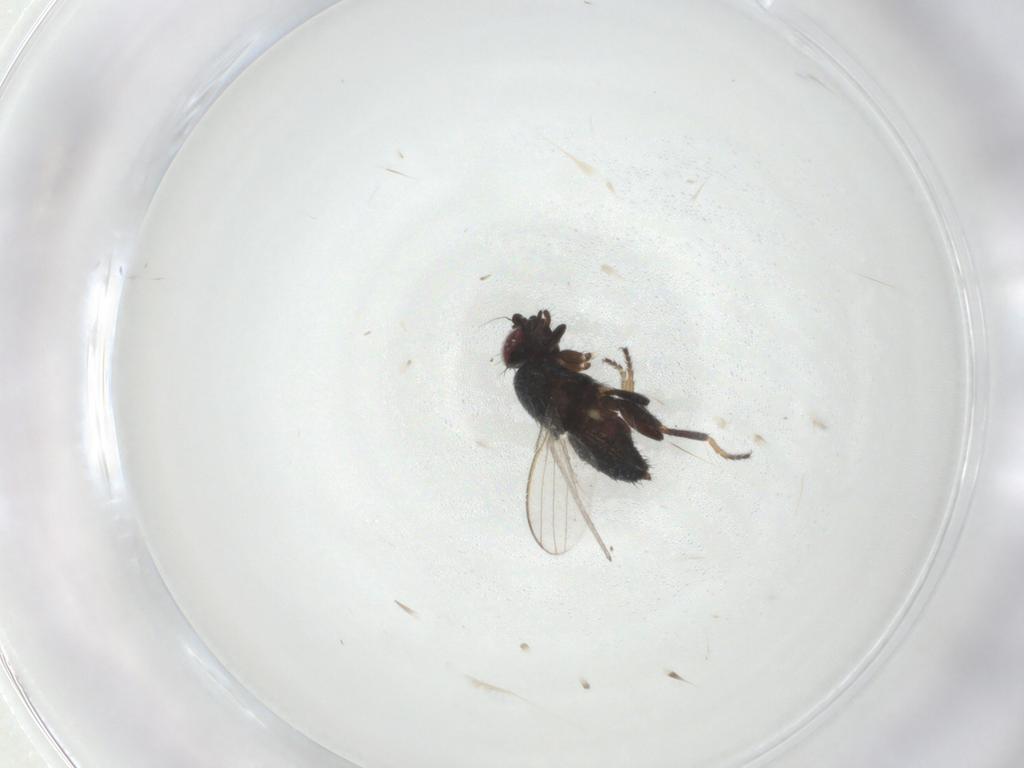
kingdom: Animalia
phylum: Arthropoda
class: Insecta
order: Diptera
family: Milichiidae
